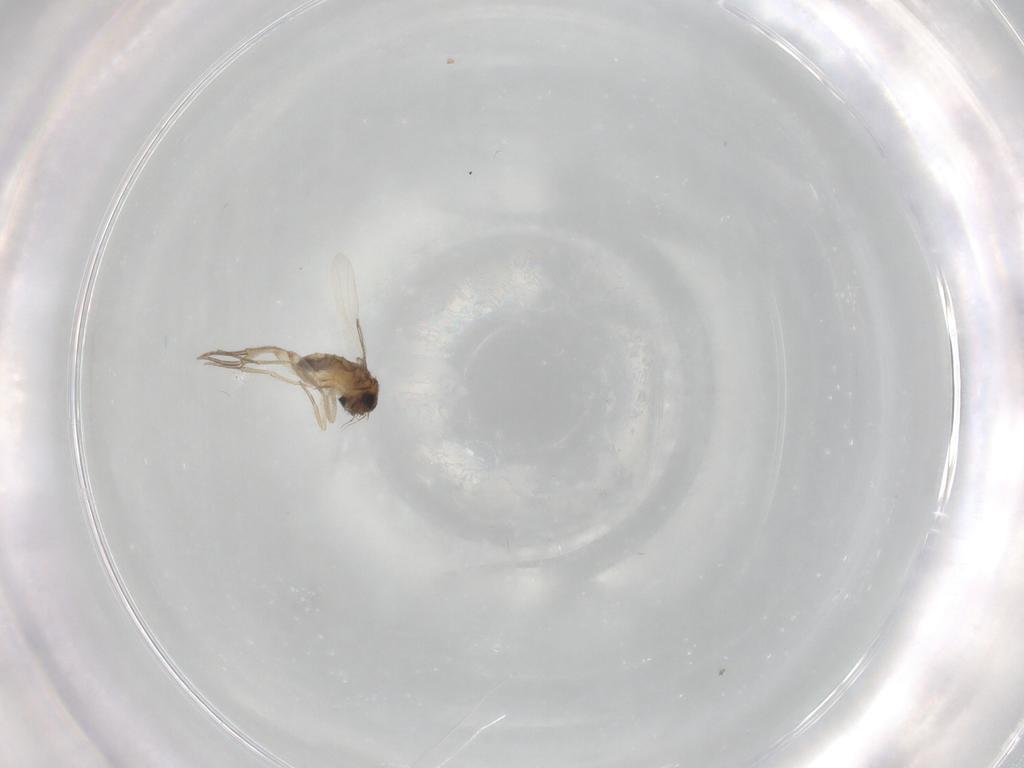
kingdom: Animalia
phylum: Arthropoda
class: Insecta
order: Diptera
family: Phoridae
